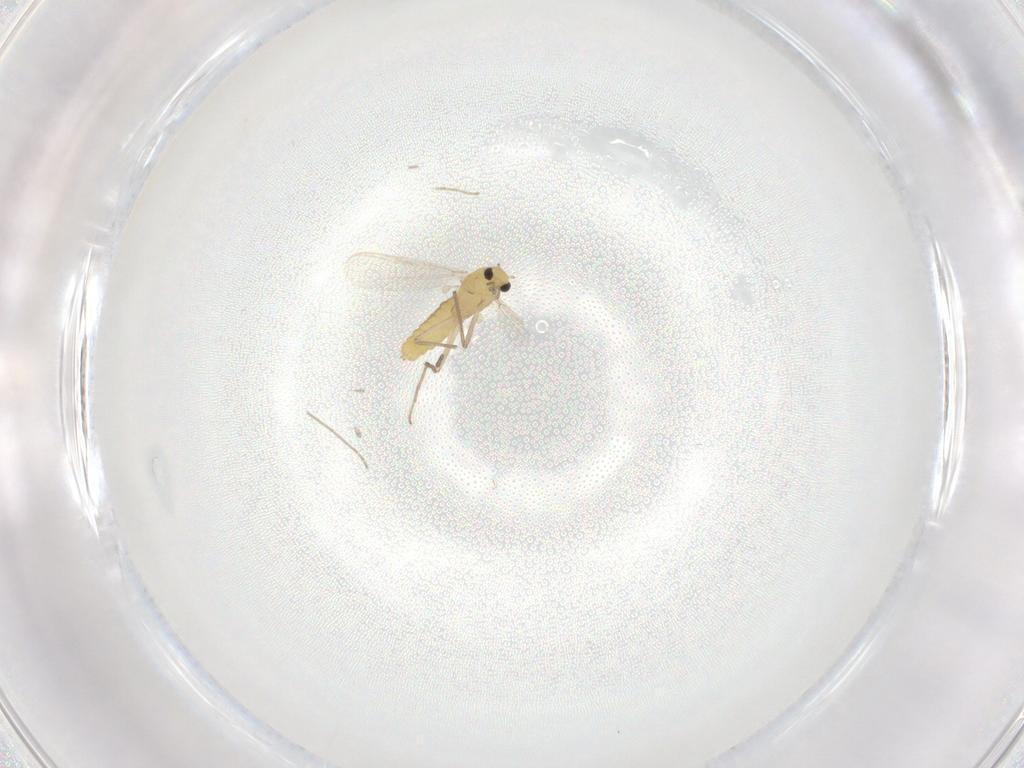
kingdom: Animalia
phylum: Arthropoda
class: Insecta
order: Diptera
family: Chironomidae
